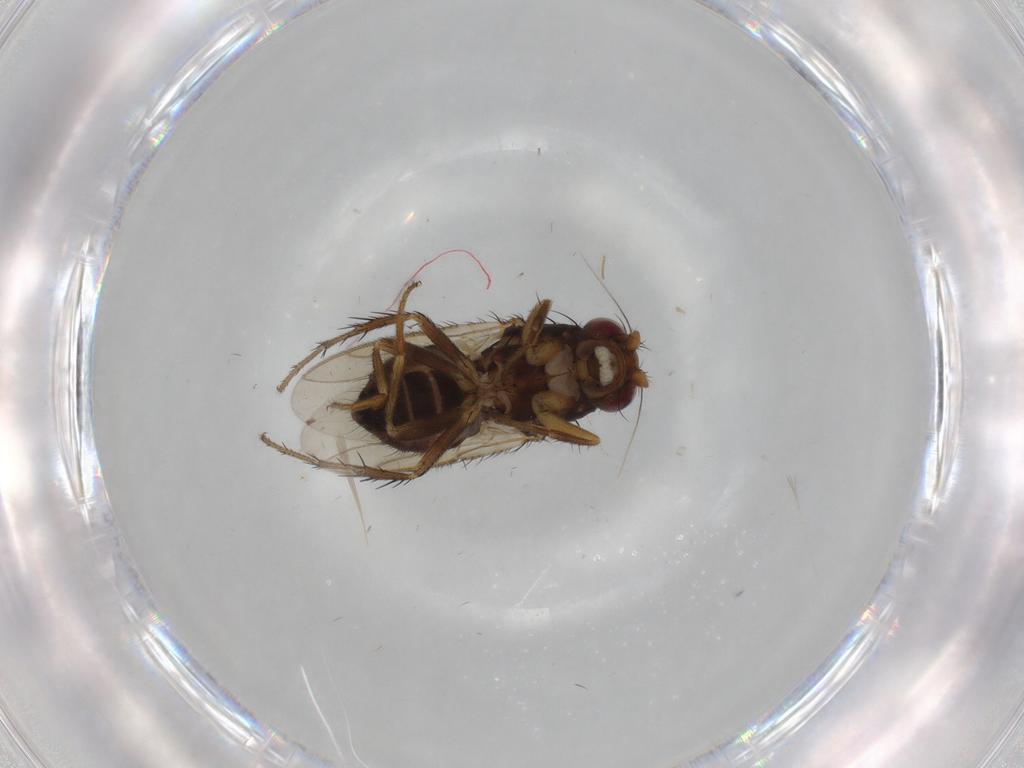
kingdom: Animalia
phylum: Arthropoda
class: Insecta
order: Diptera
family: Sphaeroceridae
